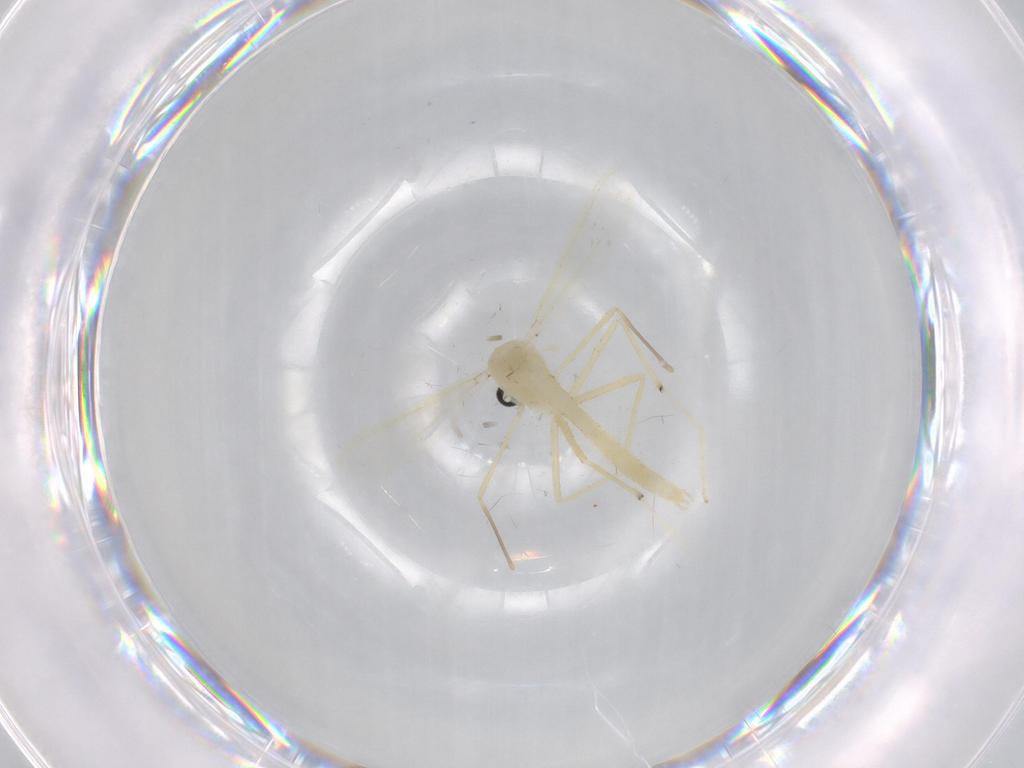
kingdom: Animalia
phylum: Arthropoda
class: Insecta
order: Diptera
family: Chironomidae
